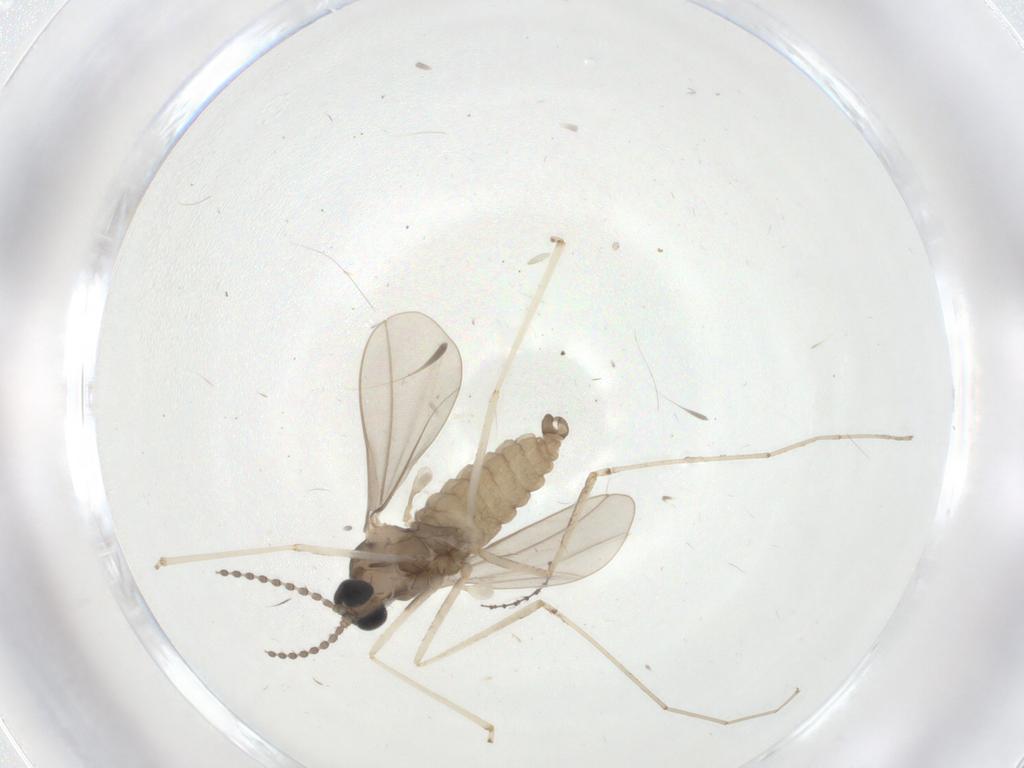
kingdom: Animalia
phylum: Arthropoda
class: Insecta
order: Diptera
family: Cecidomyiidae
